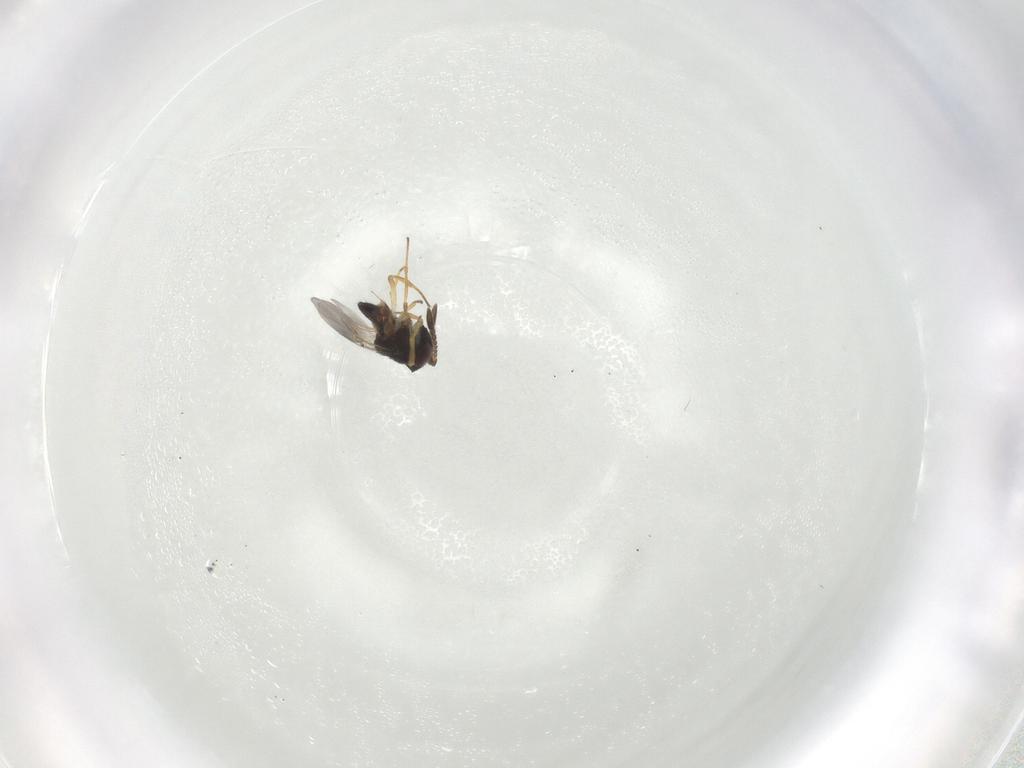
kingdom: Animalia
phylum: Arthropoda
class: Insecta
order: Hymenoptera
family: Encyrtidae
